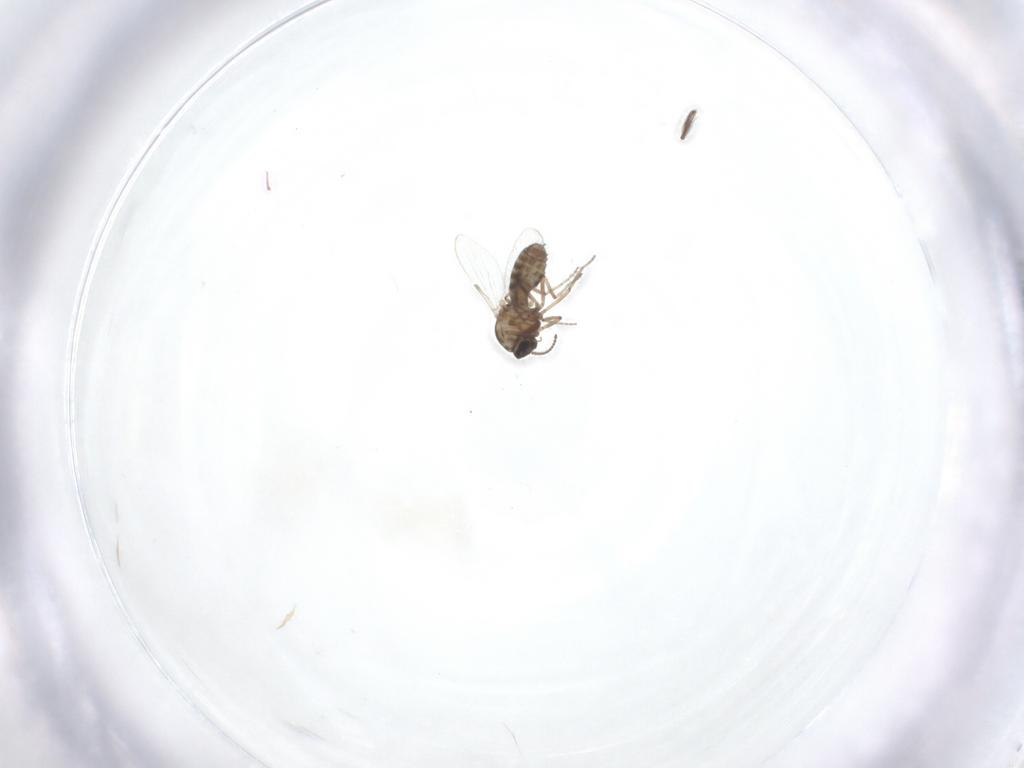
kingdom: Animalia
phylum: Arthropoda
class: Insecta
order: Diptera
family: Ceratopogonidae
